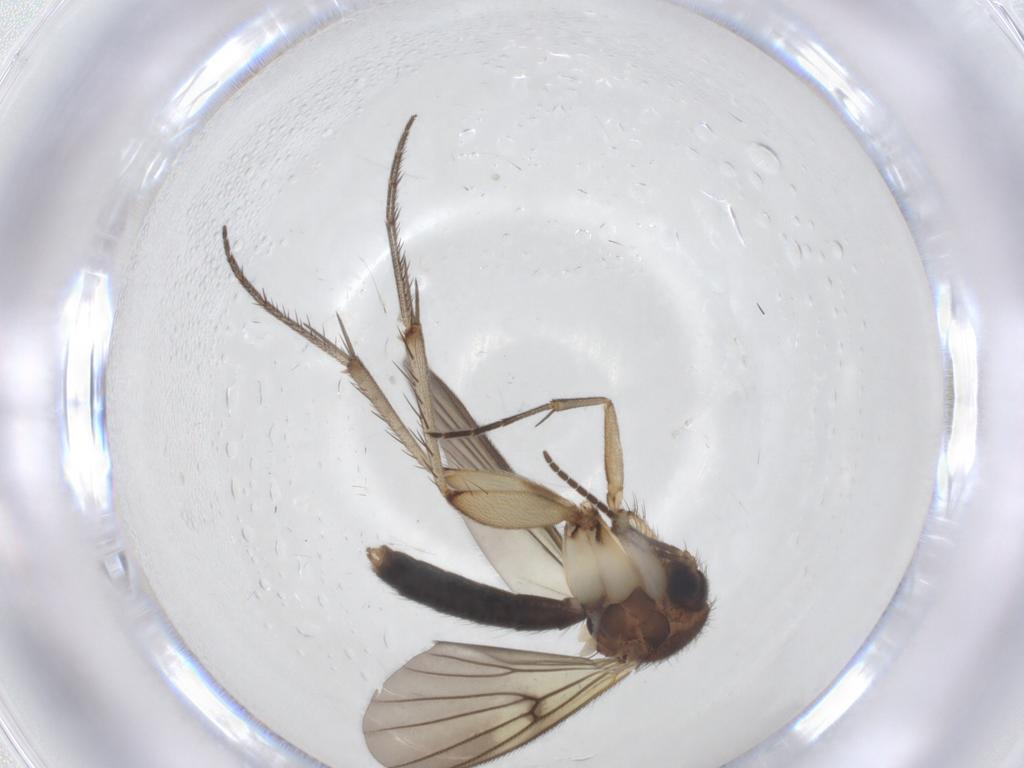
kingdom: Animalia
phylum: Arthropoda
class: Insecta
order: Diptera
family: Mycetophilidae
